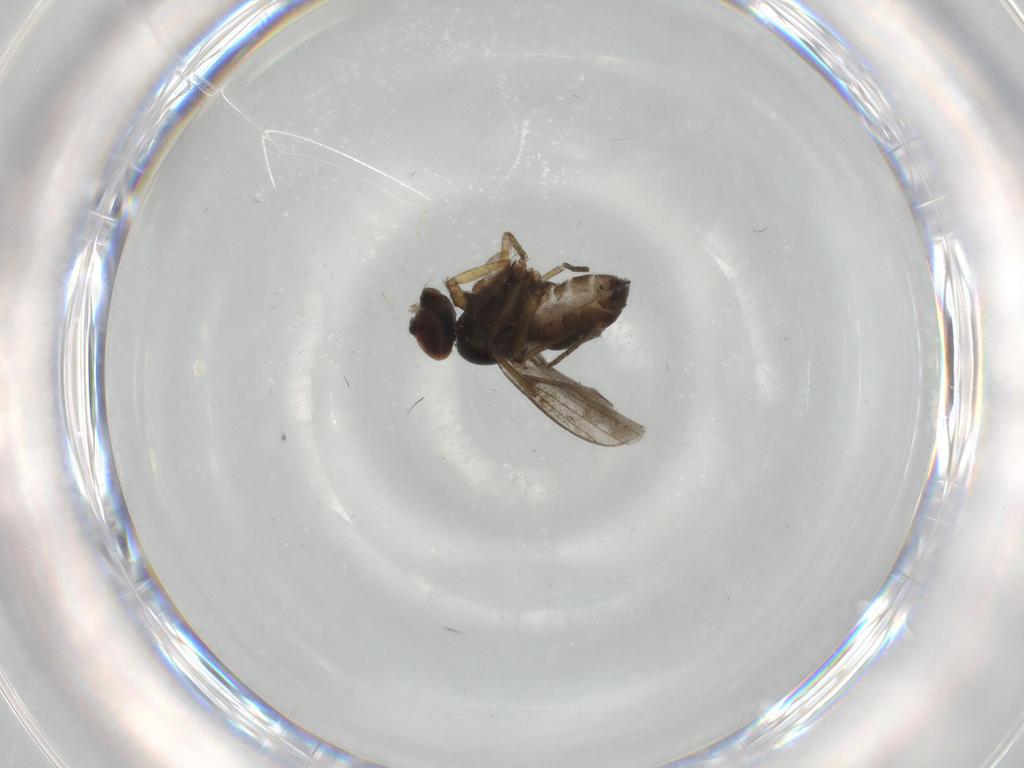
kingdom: Animalia
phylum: Arthropoda
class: Insecta
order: Diptera
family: Dolichopodidae
